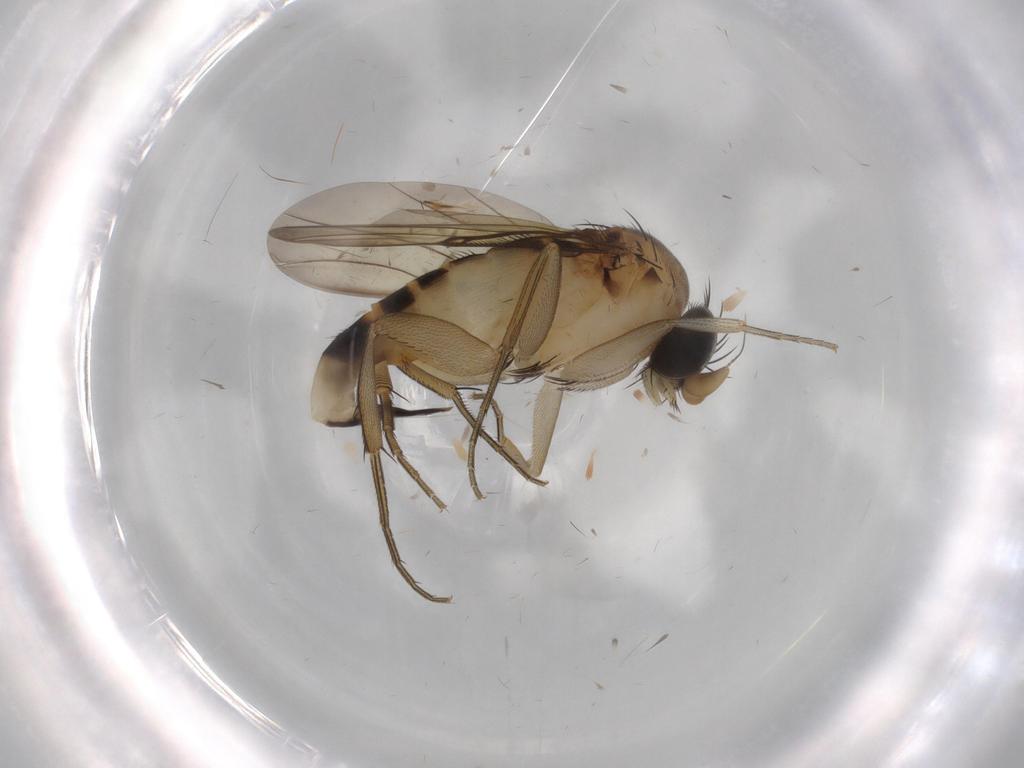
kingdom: Animalia
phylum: Arthropoda
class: Insecta
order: Diptera
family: Phoridae
